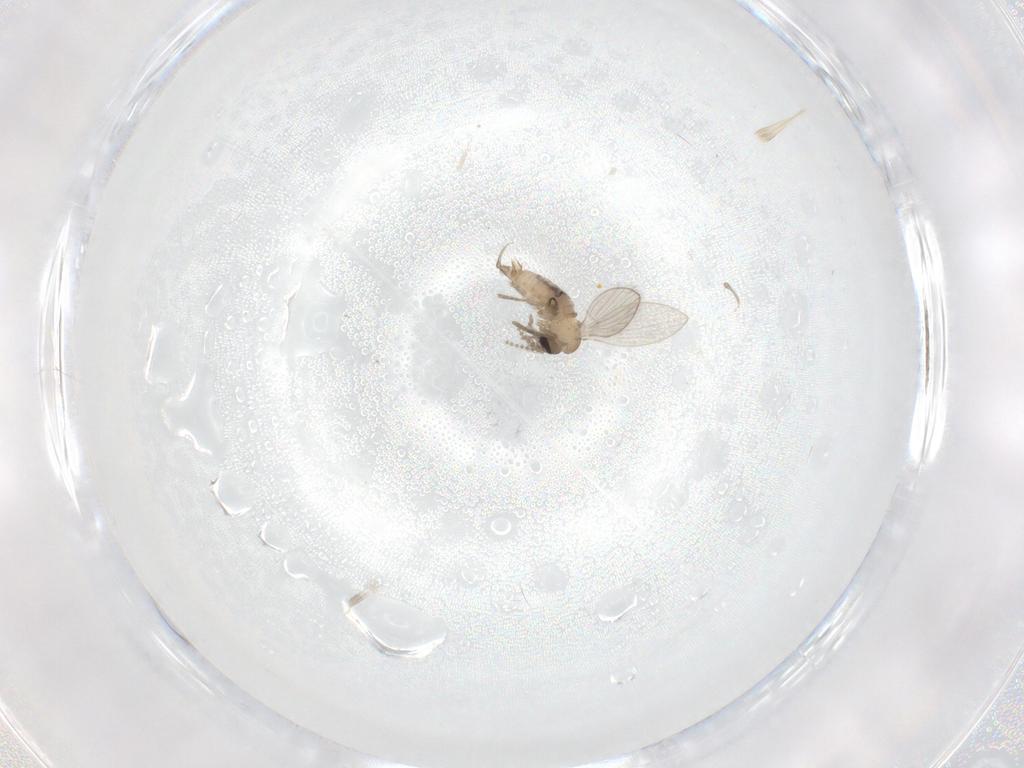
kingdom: Animalia
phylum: Arthropoda
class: Insecta
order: Diptera
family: Psychodidae
